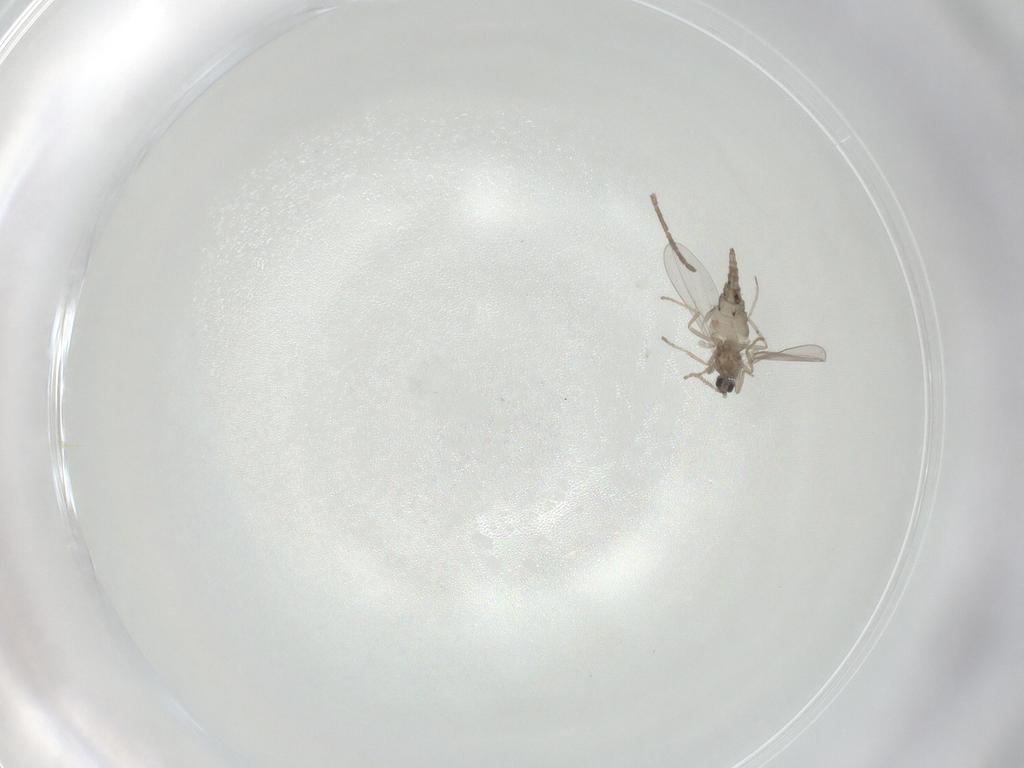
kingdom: Animalia
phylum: Arthropoda
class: Insecta
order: Diptera
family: Cecidomyiidae
